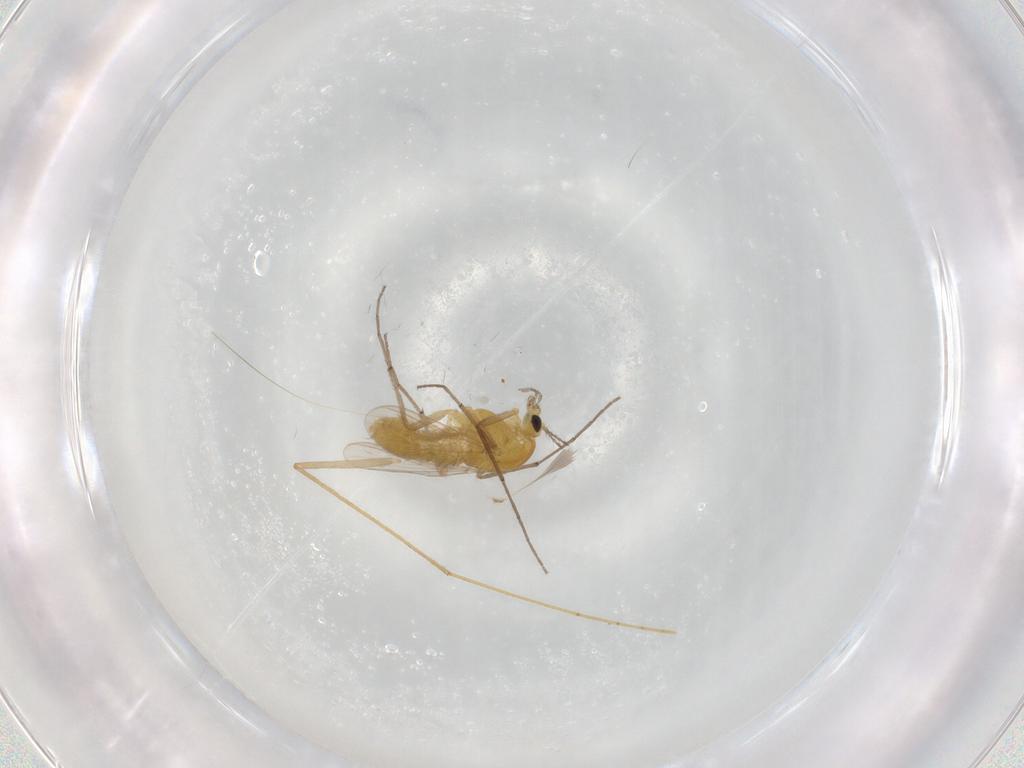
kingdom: Animalia
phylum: Arthropoda
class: Insecta
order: Diptera
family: Chironomidae
